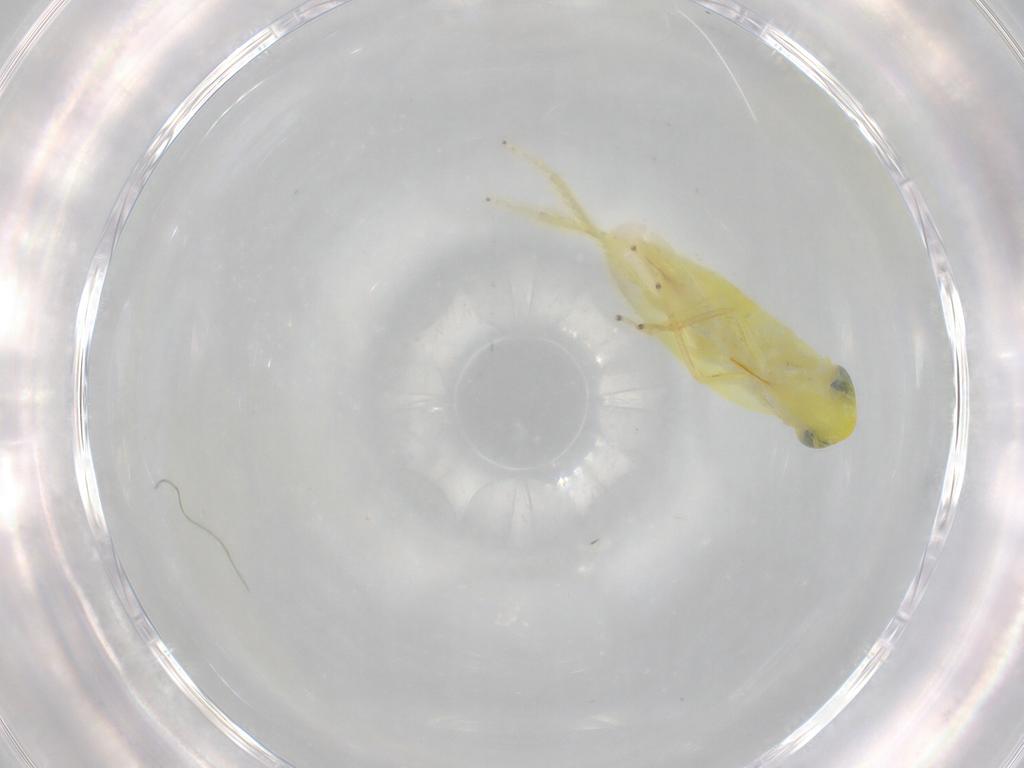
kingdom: Animalia
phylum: Arthropoda
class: Insecta
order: Hemiptera
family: Cicadellidae
